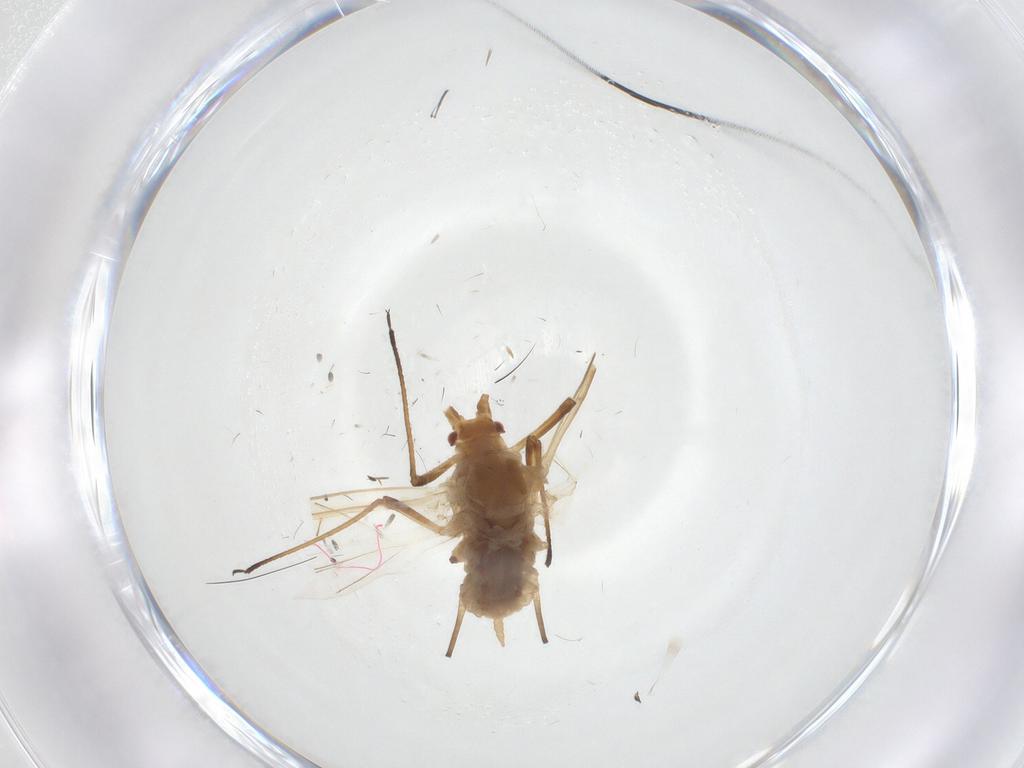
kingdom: Animalia
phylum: Arthropoda
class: Insecta
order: Hemiptera
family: Aphididae
